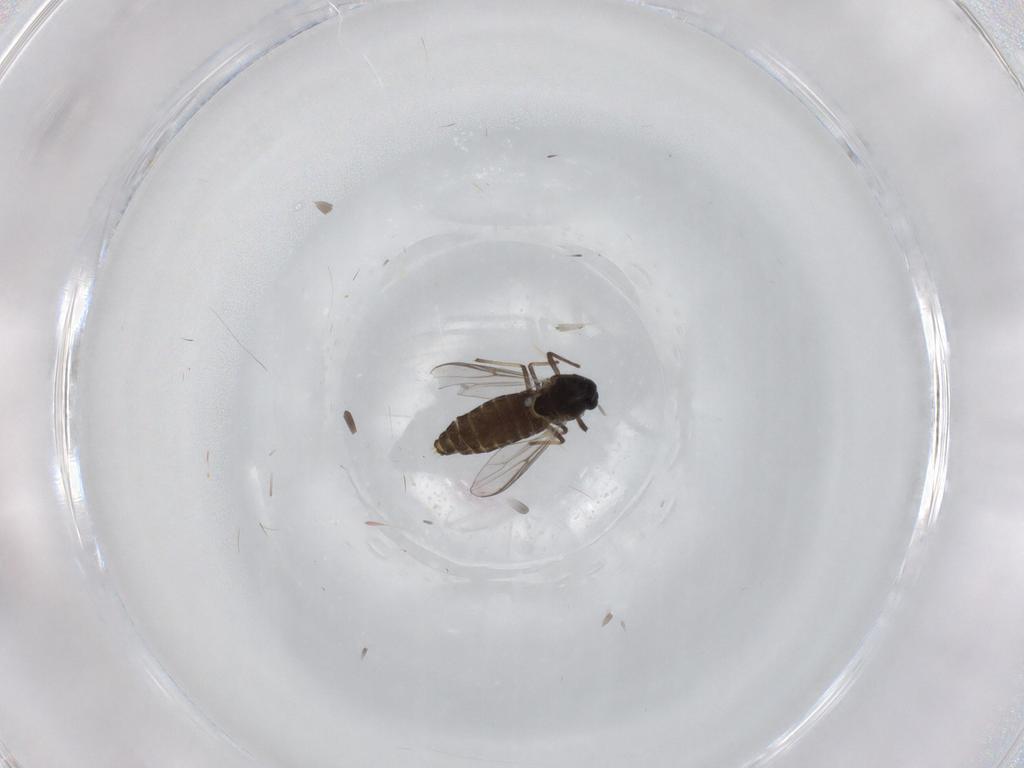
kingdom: Animalia
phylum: Arthropoda
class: Insecta
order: Diptera
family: Chironomidae
